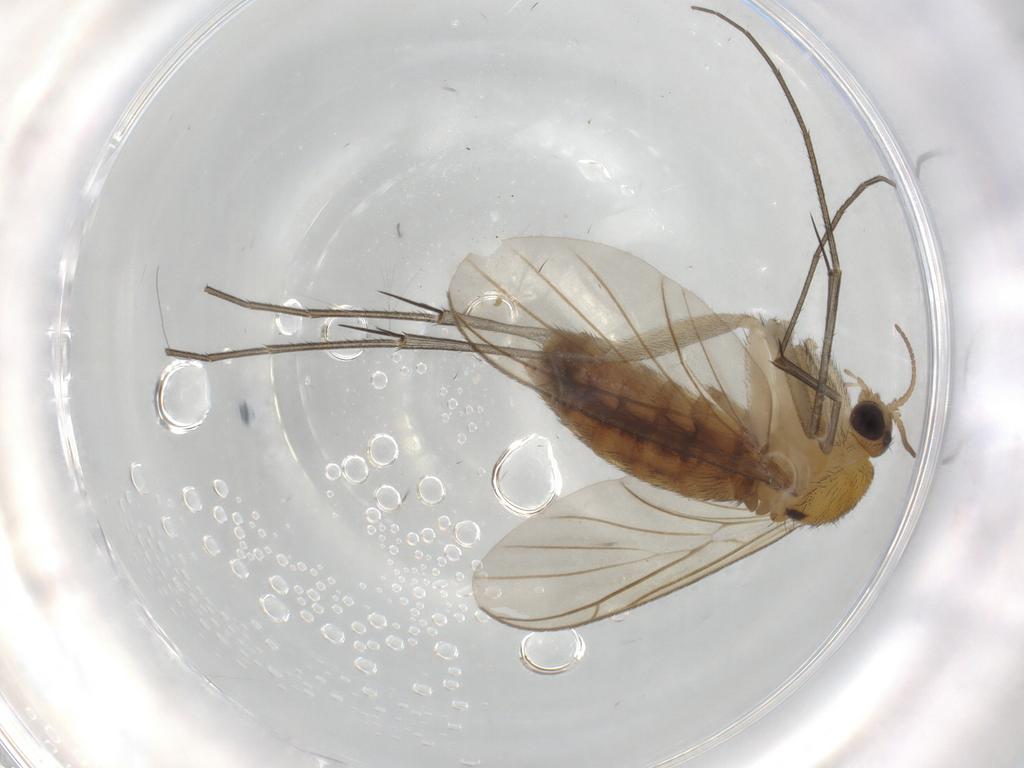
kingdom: Animalia
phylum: Arthropoda
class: Insecta
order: Diptera
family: Keroplatidae
